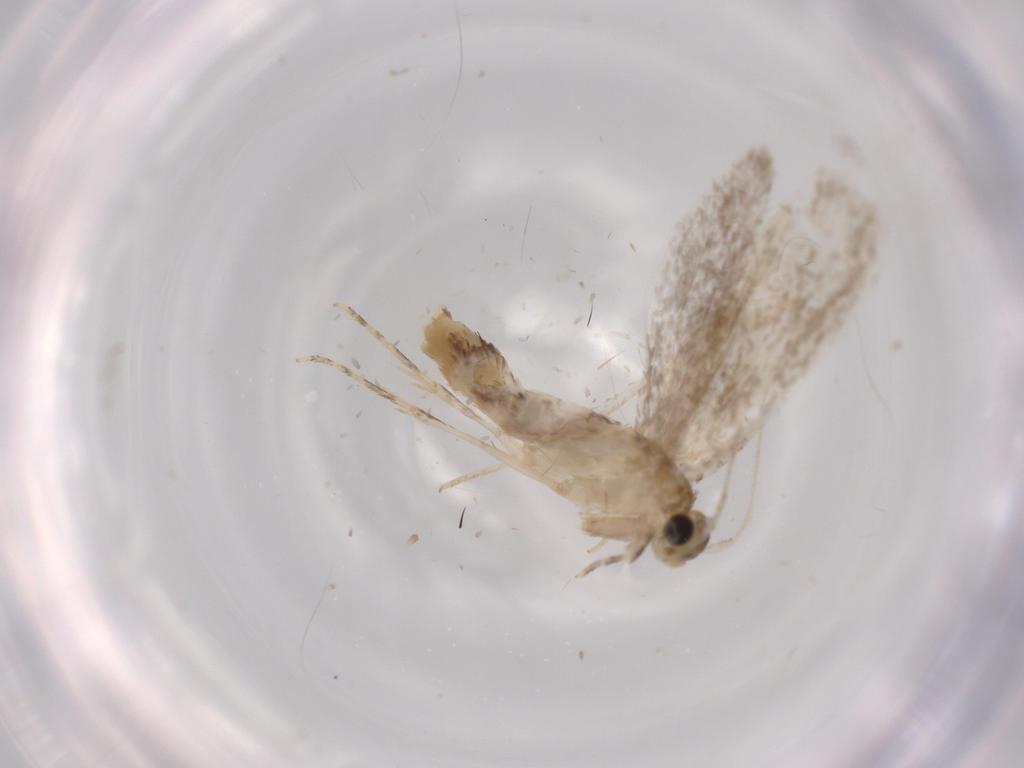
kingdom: Animalia
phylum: Arthropoda
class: Insecta
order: Lepidoptera
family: Tineidae
